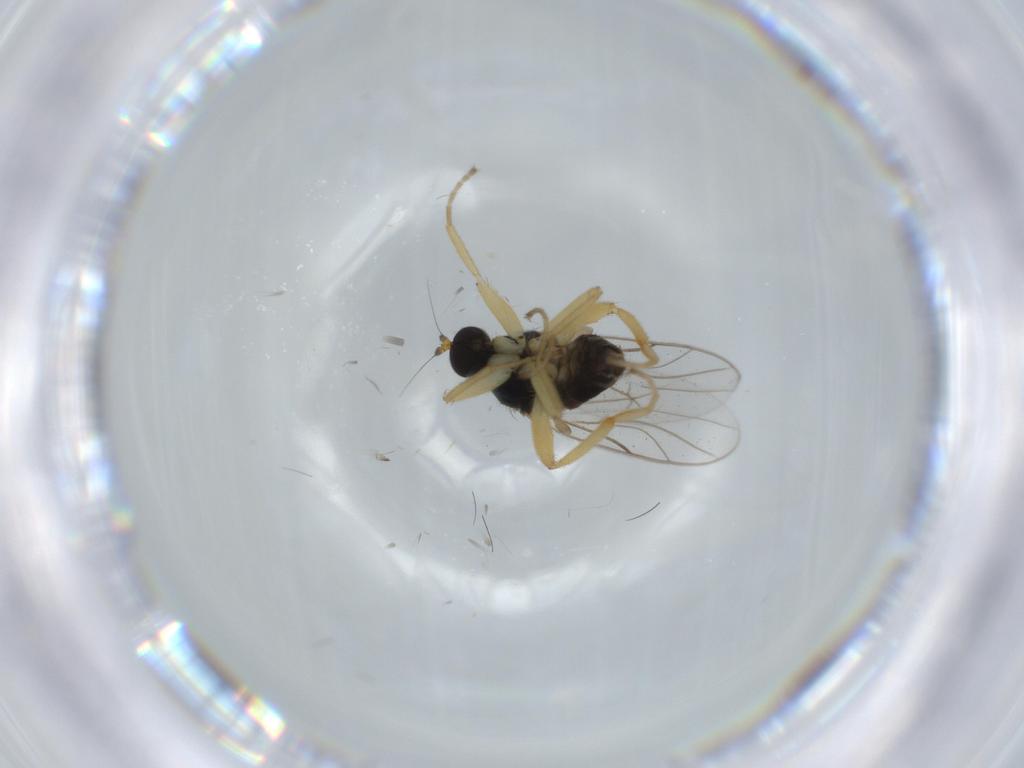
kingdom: Animalia
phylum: Arthropoda
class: Insecta
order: Diptera
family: Hybotidae
